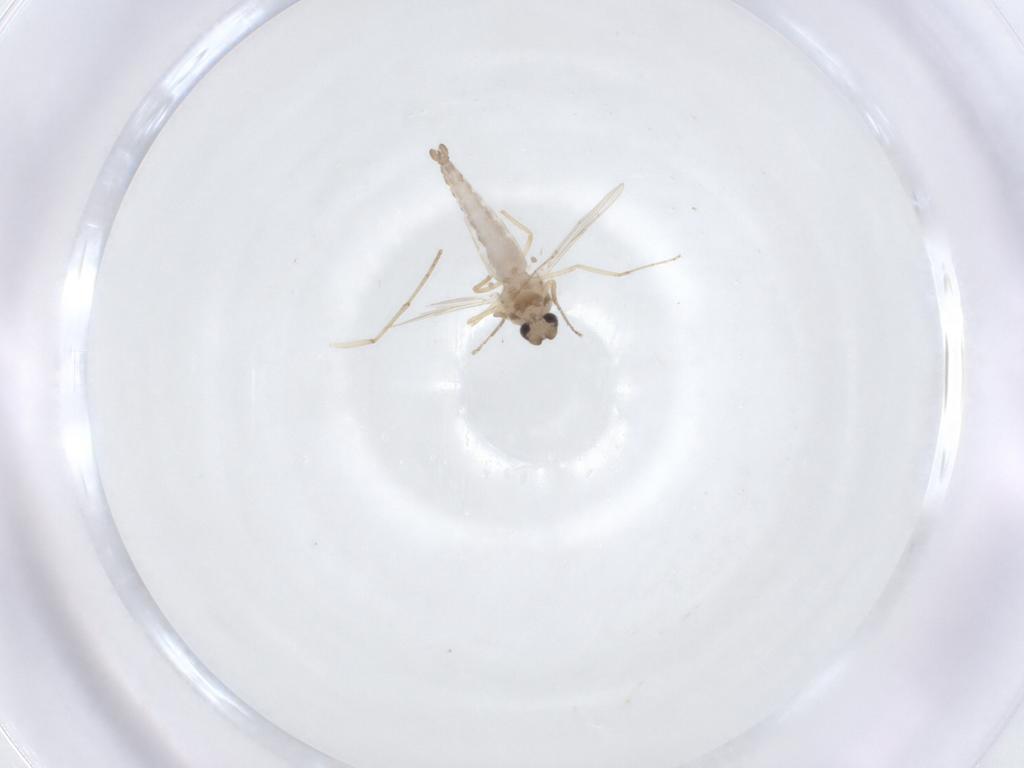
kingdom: Animalia
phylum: Arthropoda
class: Insecta
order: Diptera
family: Ceratopogonidae
